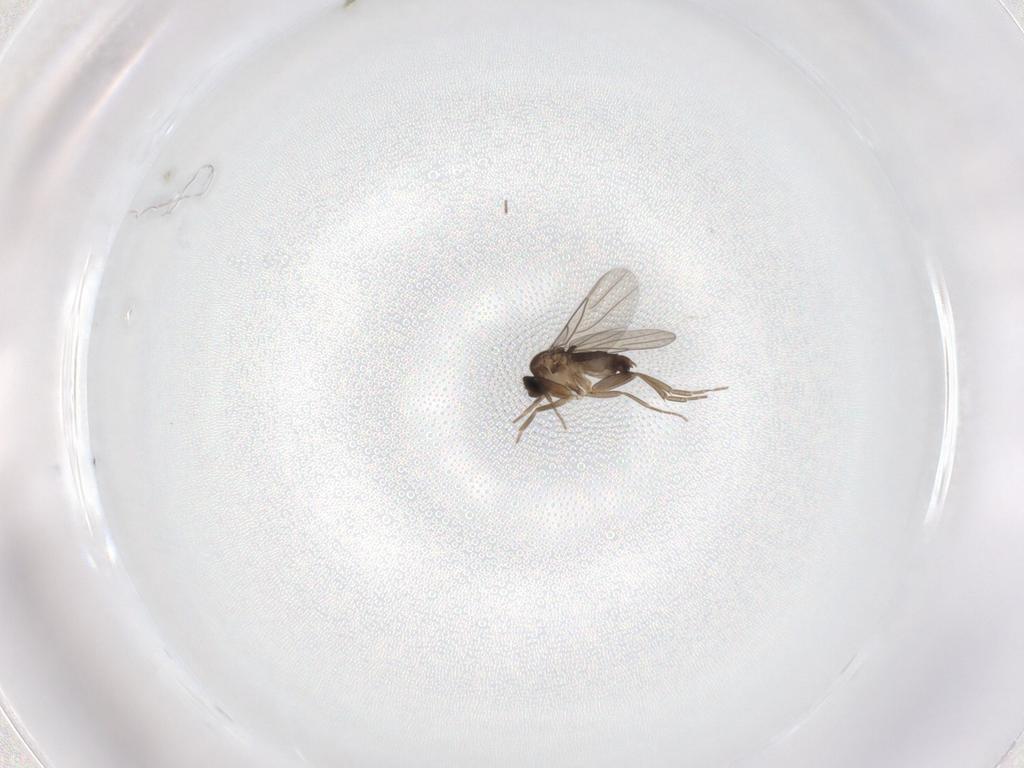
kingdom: Animalia
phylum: Arthropoda
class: Insecta
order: Diptera
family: Phoridae
